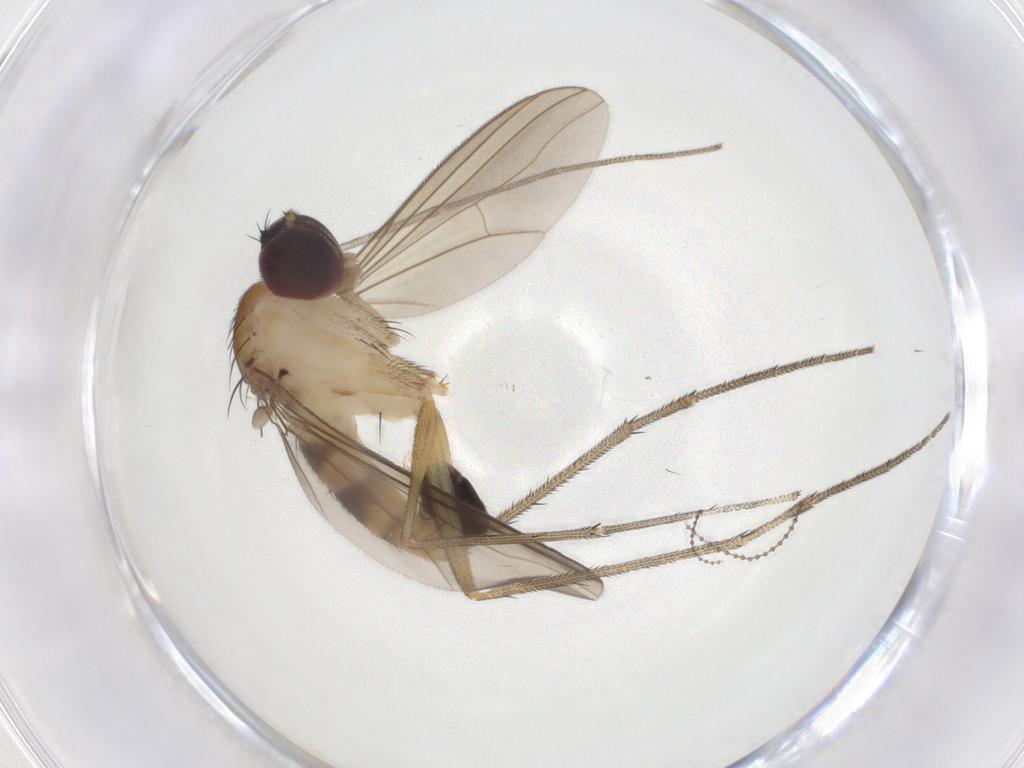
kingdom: Animalia
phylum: Arthropoda
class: Insecta
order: Diptera
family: Dolichopodidae
